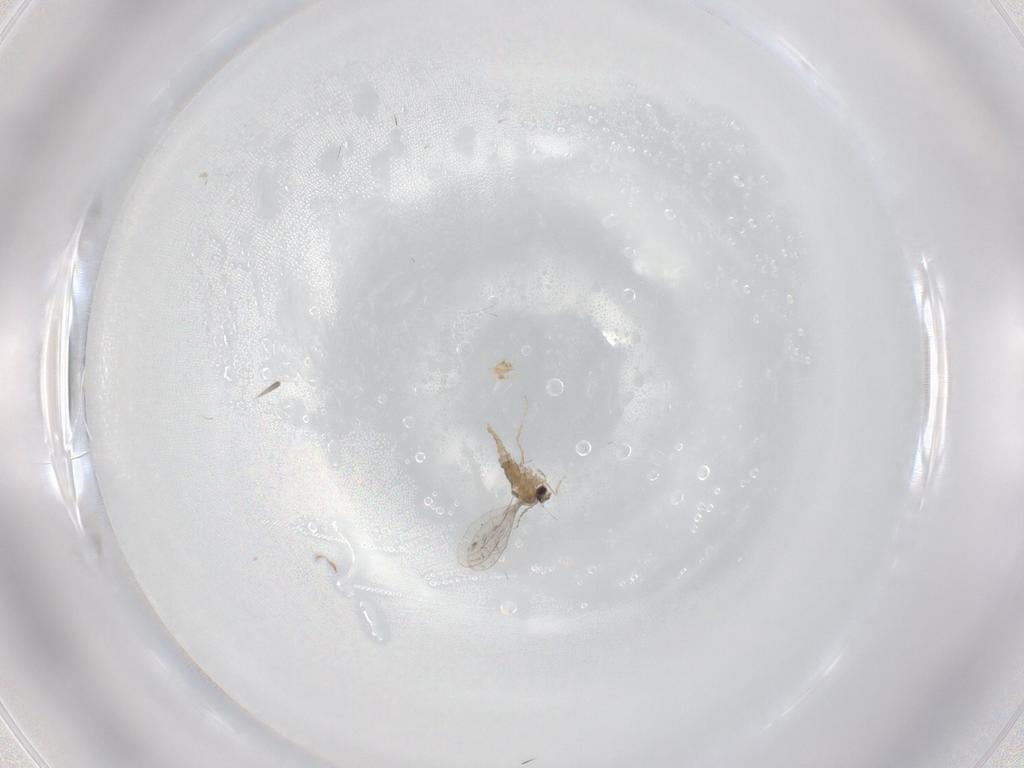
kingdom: Animalia
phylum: Arthropoda
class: Insecta
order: Diptera
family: Cecidomyiidae
